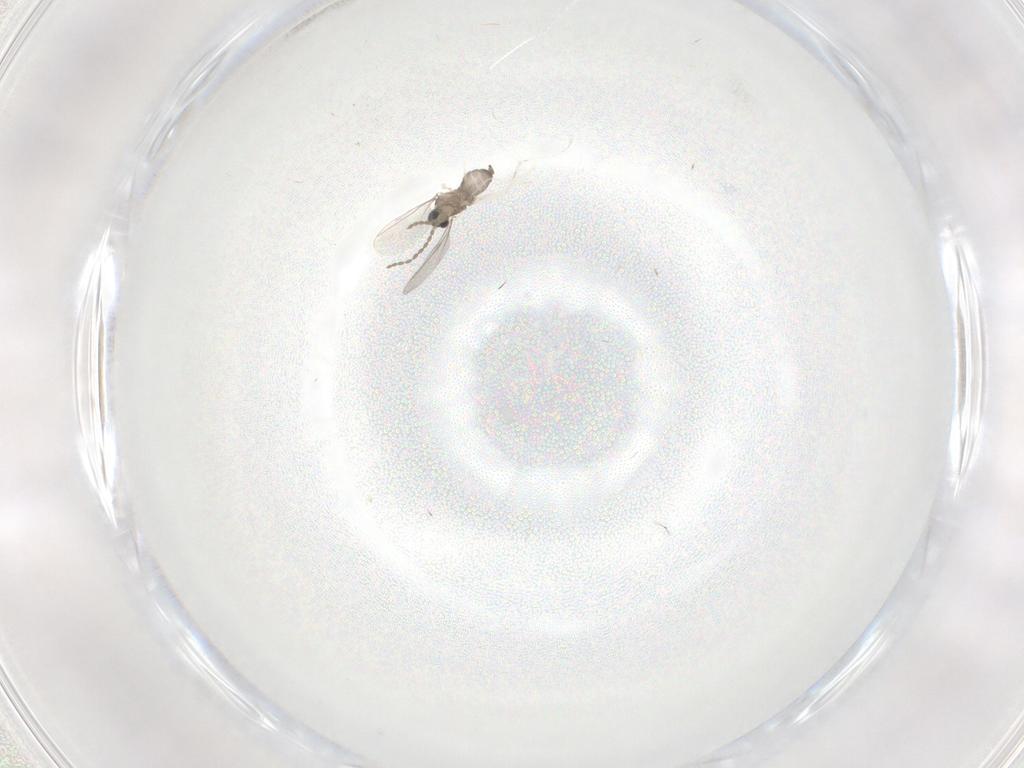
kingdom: Animalia
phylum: Arthropoda
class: Insecta
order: Diptera
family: Cecidomyiidae
